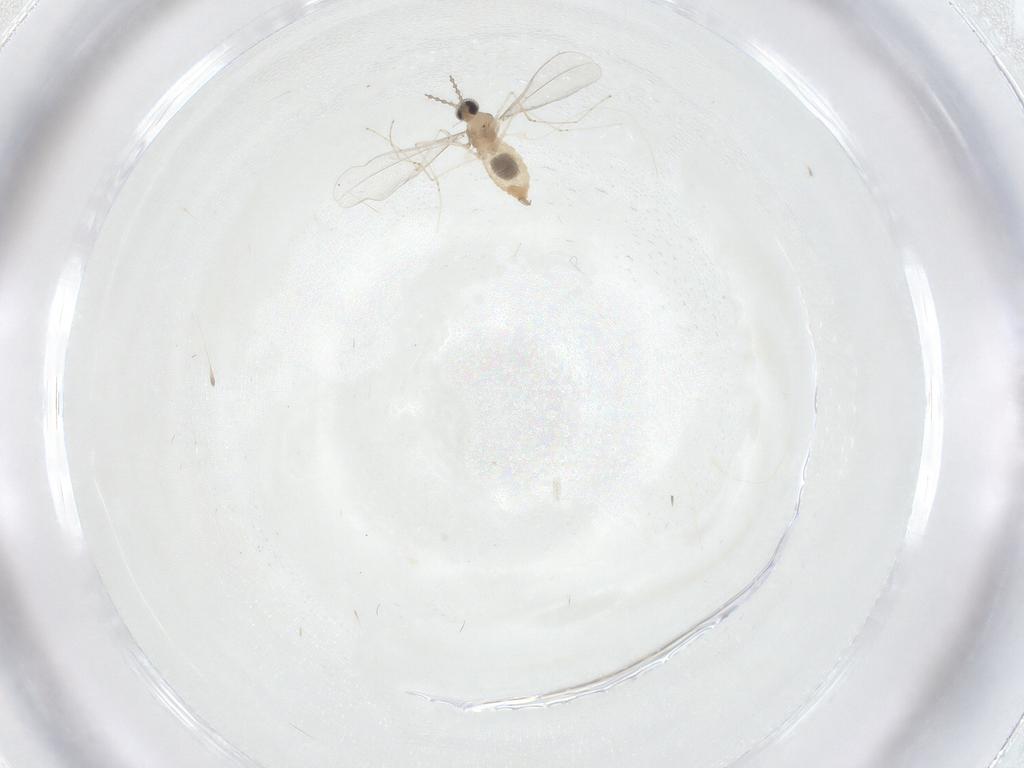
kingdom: Animalia
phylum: Arthropoda
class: Insecta
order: Diptera
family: Cecidomyiidae
